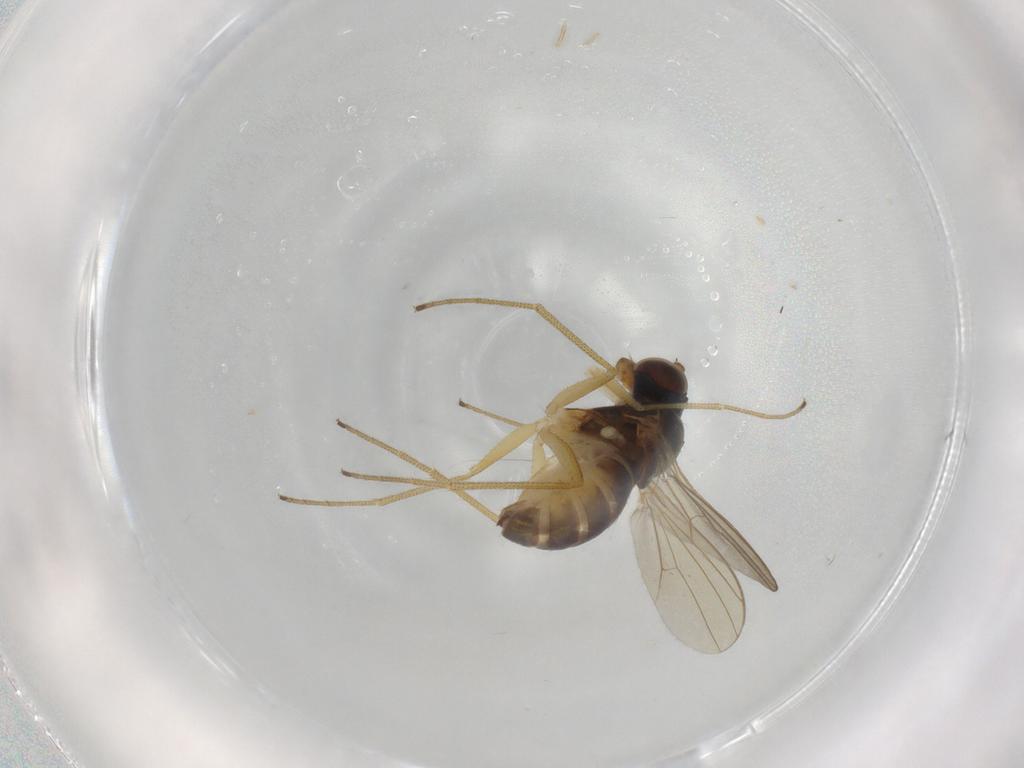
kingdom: Animalia
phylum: Arthropoda
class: Insecta
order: Diptera
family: Dolichopodidae
